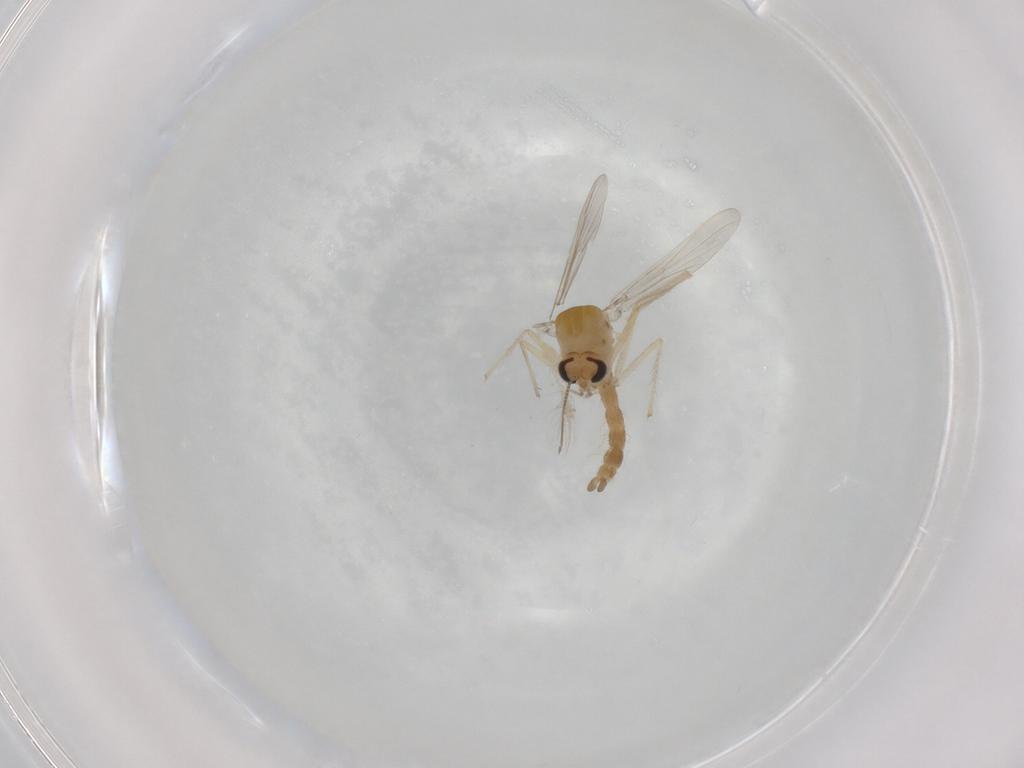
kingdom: Animalia
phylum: Arthropoda
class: Insecta
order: Diptera
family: Chironomidae
